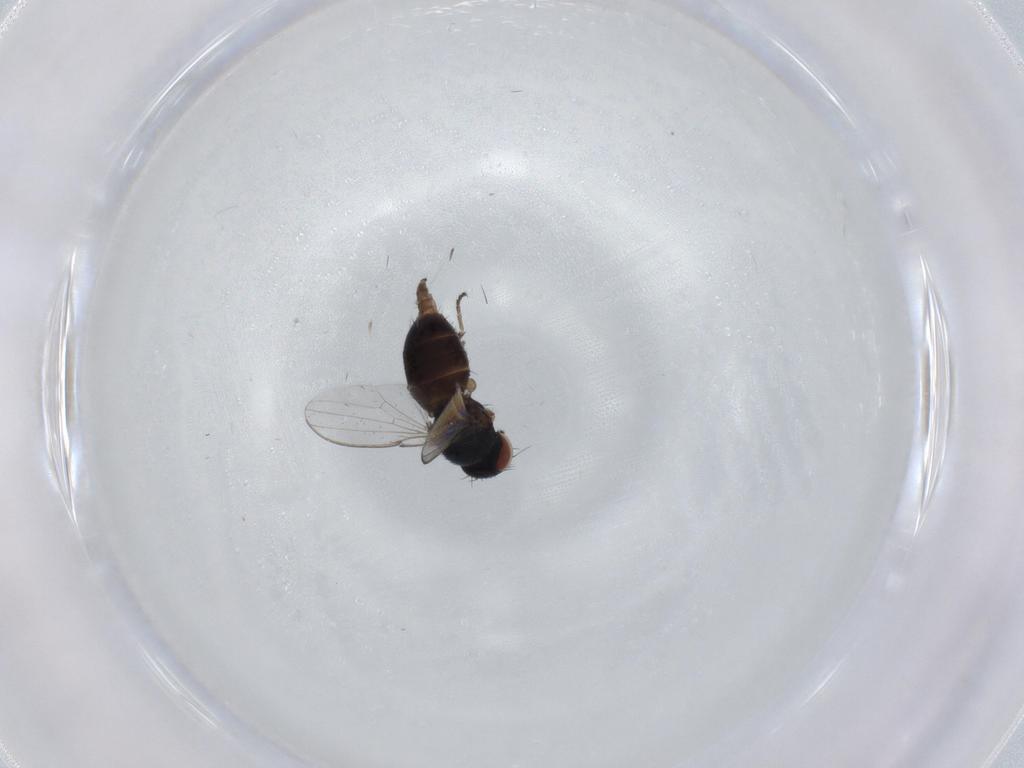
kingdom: Animalia
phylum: Arthropoda
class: Insecta
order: Diptera
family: Milichiidae
